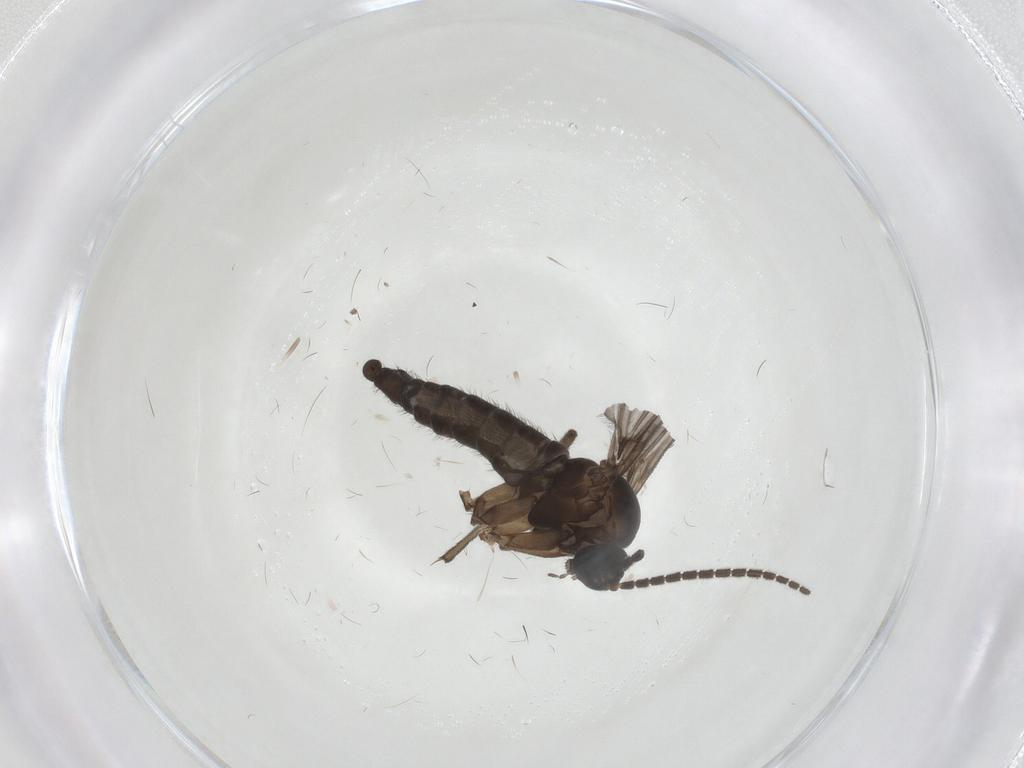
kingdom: Animalia
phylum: Arthropoda
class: Insecta
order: Diptera
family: Sciaridae
